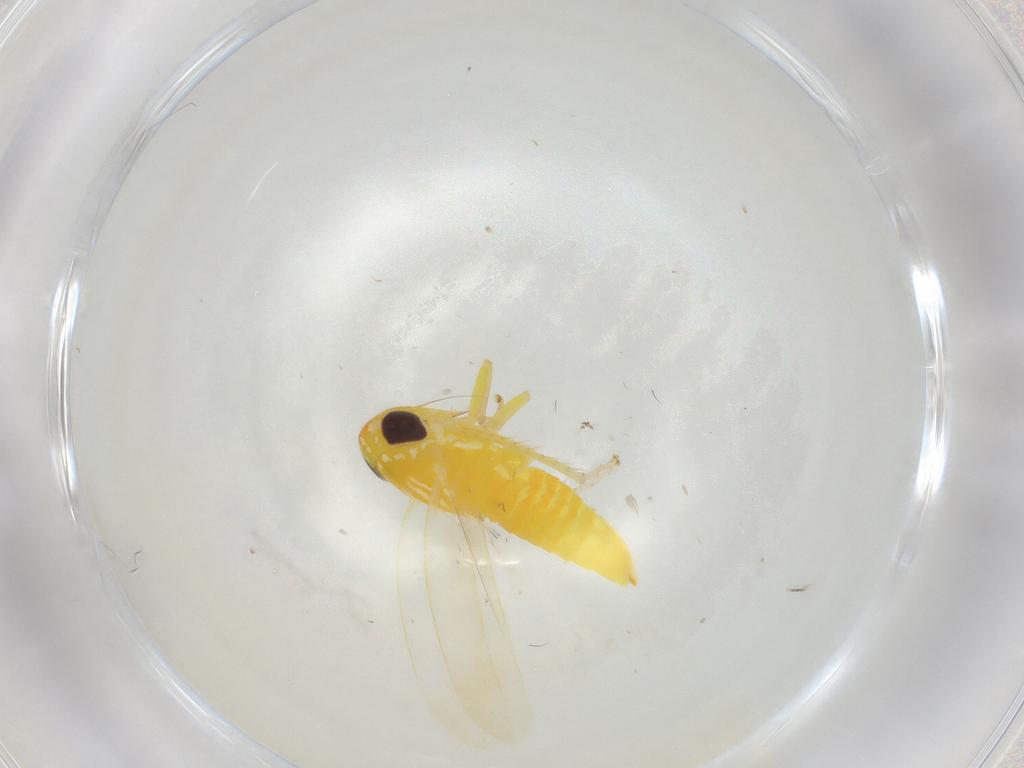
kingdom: Animalia
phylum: Arthropoda
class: Insecta
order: Hemiptera
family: Cicadellidae
